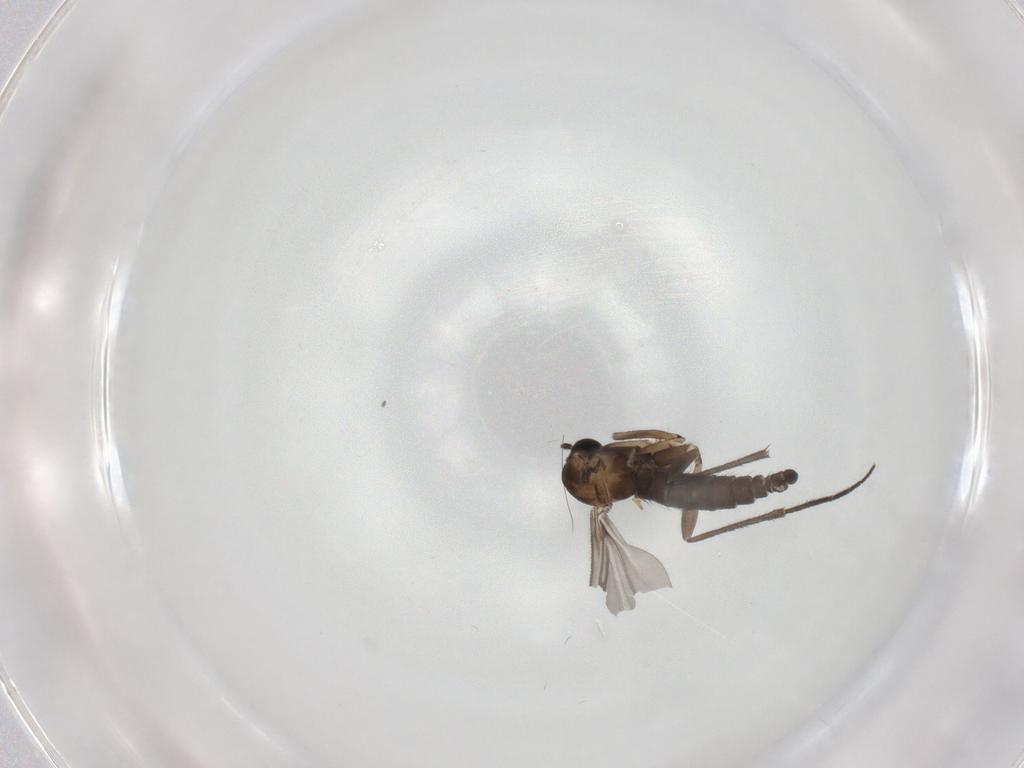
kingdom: Animalia
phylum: Arthropoda
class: Insecta
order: Diptera
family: Sciaridae
